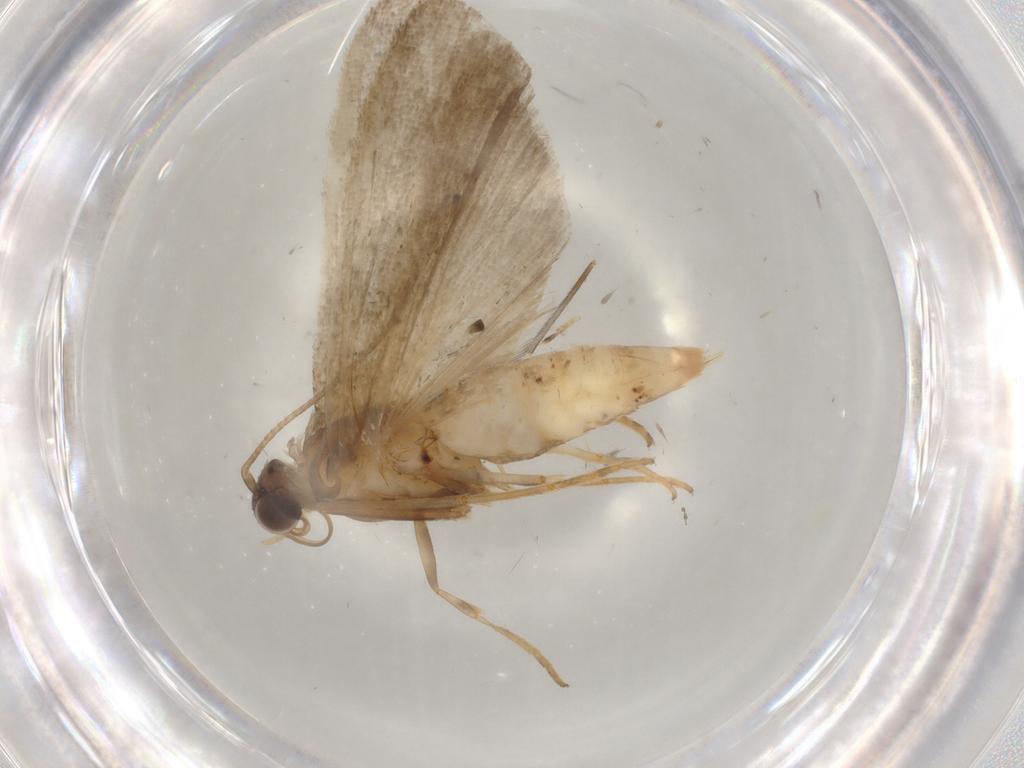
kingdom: Animalia
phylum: Arthropoda
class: Insecta
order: Lepidoptera
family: Noctuidae
